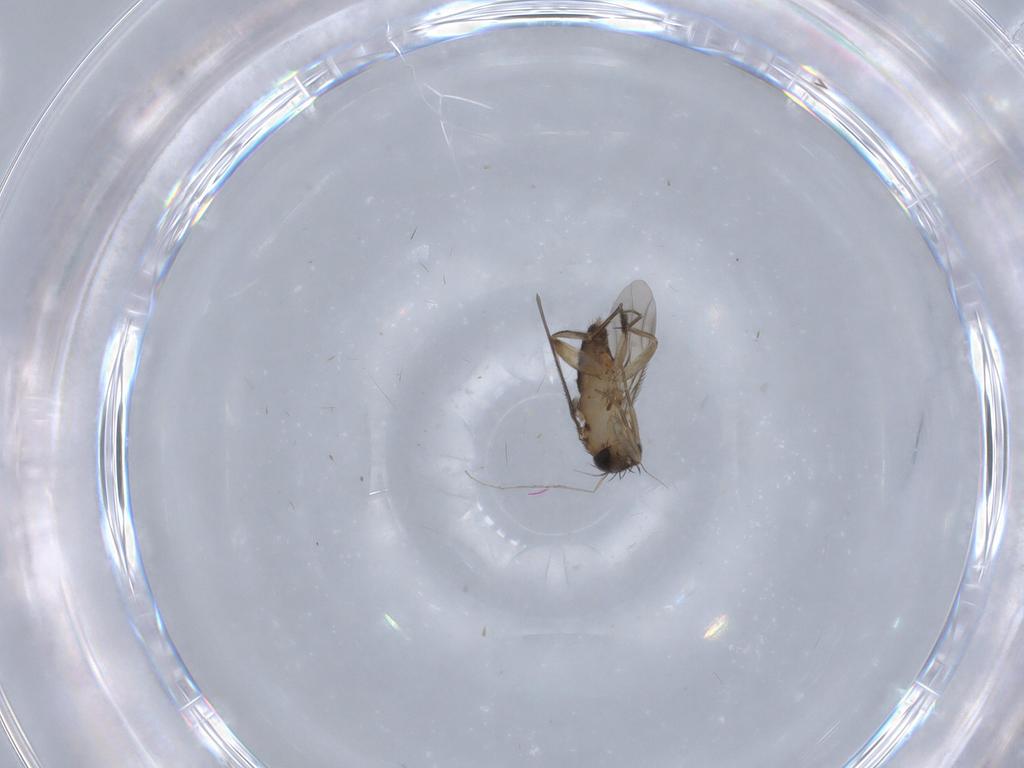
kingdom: Animalia
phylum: Arthropoda
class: Insecta
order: Diptera
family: Phoridae
